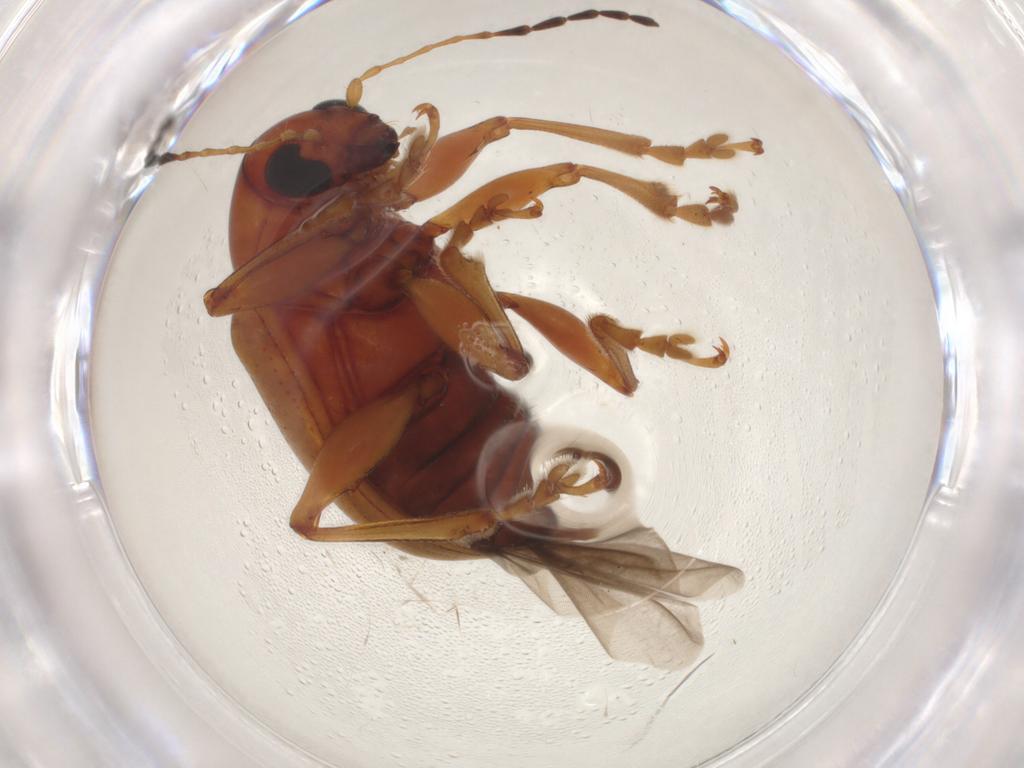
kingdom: Animalia
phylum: Arthropoda
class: Insecta
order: Coleoptera
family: Chrysomelidae
